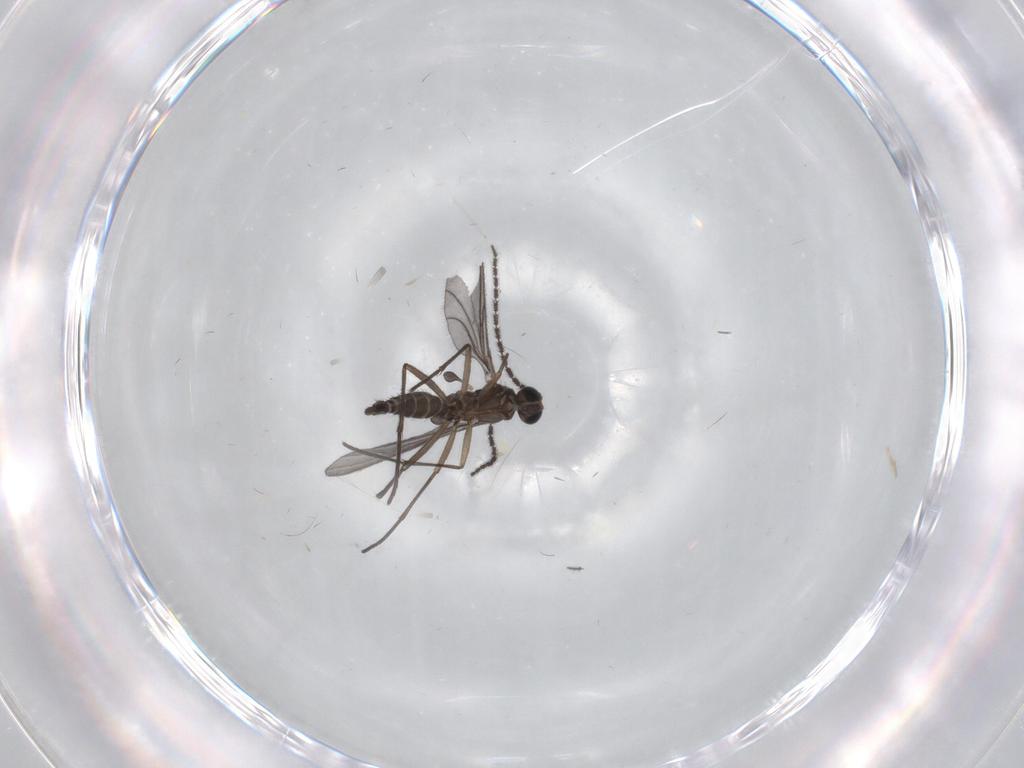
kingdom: Animalia
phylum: Arthropoda
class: Insecta
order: Diptera
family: Sciaridae
